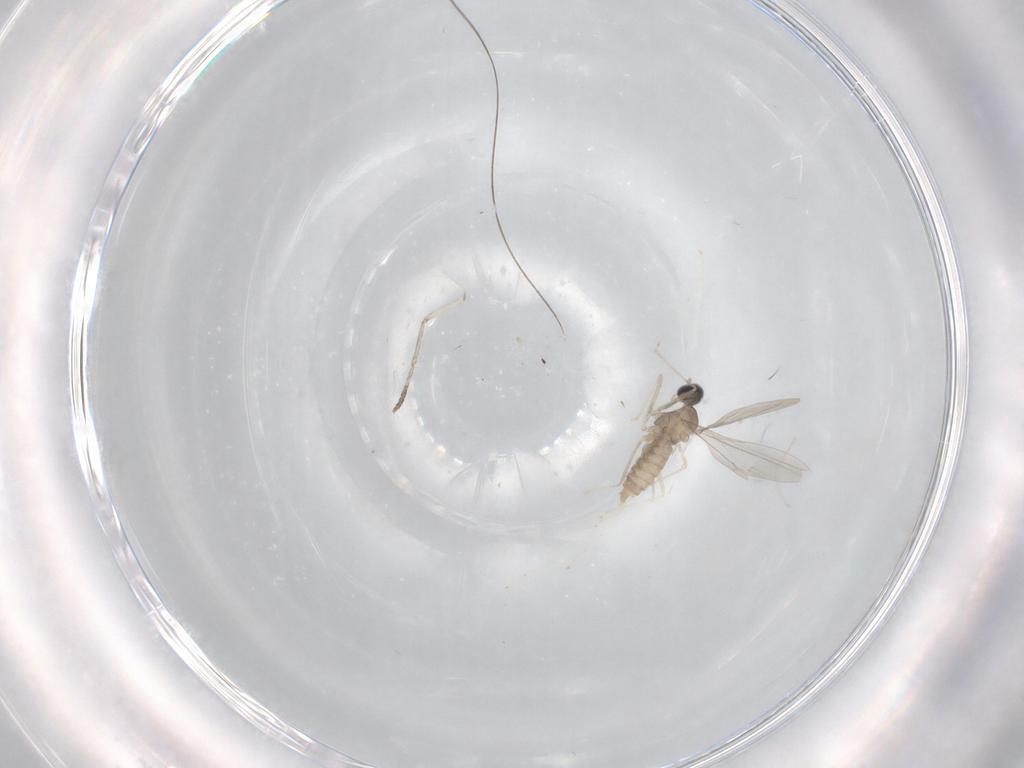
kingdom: Animalia
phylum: Arthropoda
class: Insecta
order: Diptera
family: Cecidomyiidae
